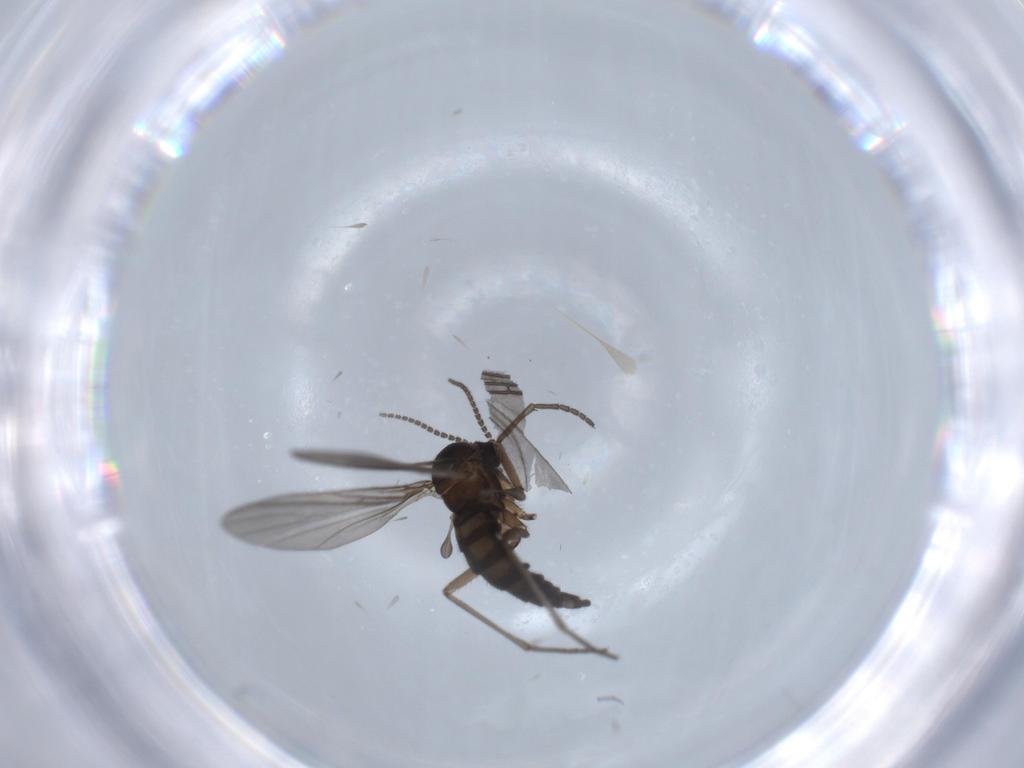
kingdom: Animalia
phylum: Arthropoda
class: Insecta
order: Diptera
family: Sciaridae
